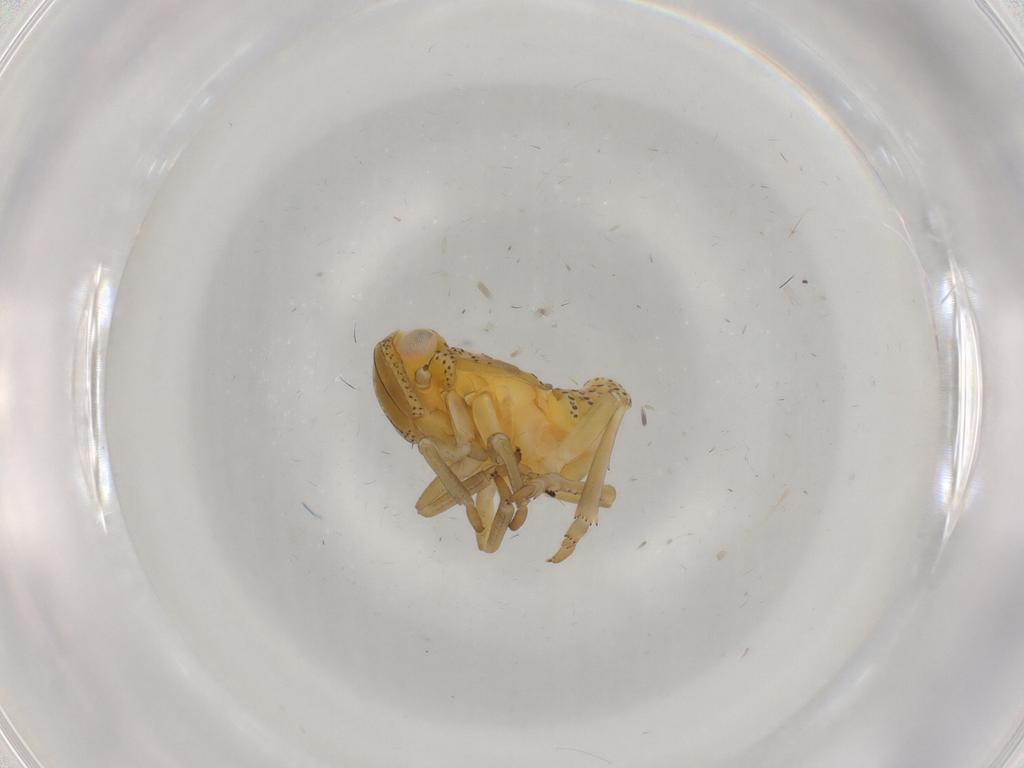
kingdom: Animalia
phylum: Arthropoda
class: Insecta
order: Hemiptera
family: Tropiduchidae
